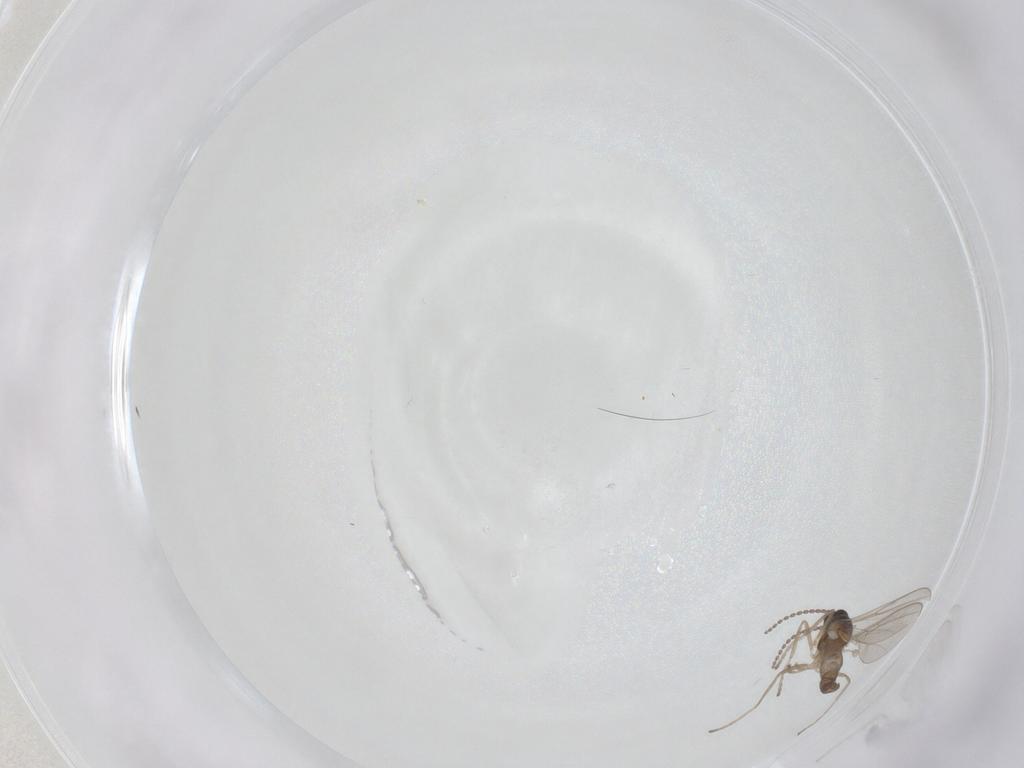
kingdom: Animalia
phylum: Arthropoda
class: Insecta
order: Diptera
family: Cecidomyiidae
